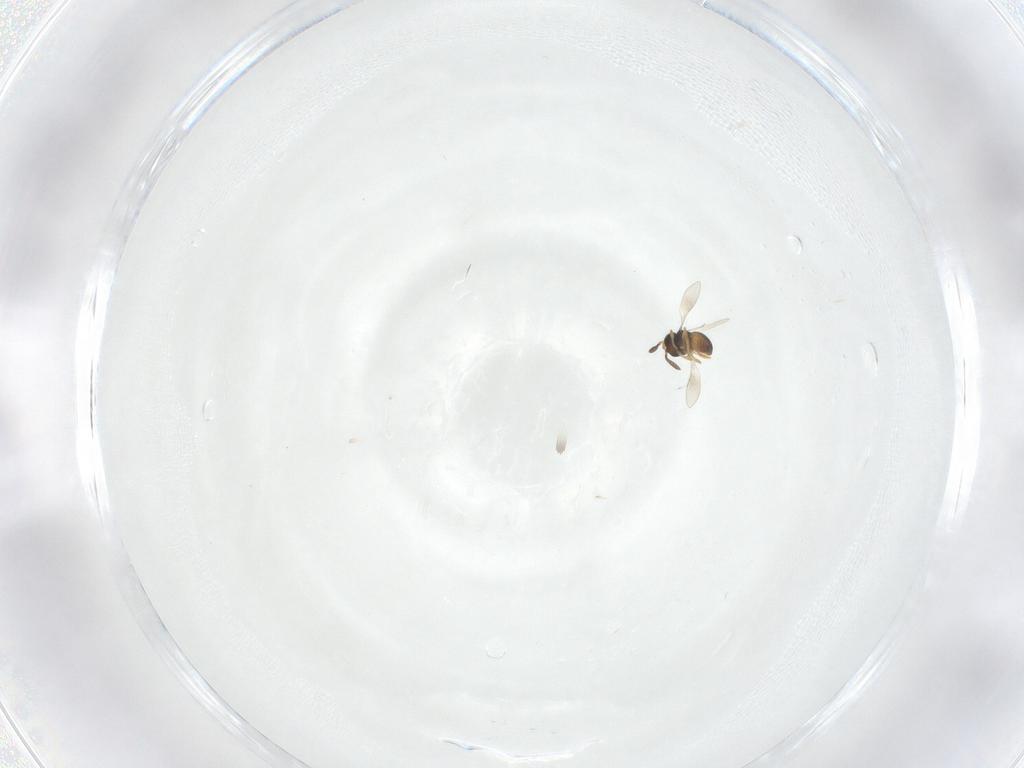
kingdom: Animalia
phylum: Arthropoda
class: Insecta
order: Hymenoptera
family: Scelionidae
